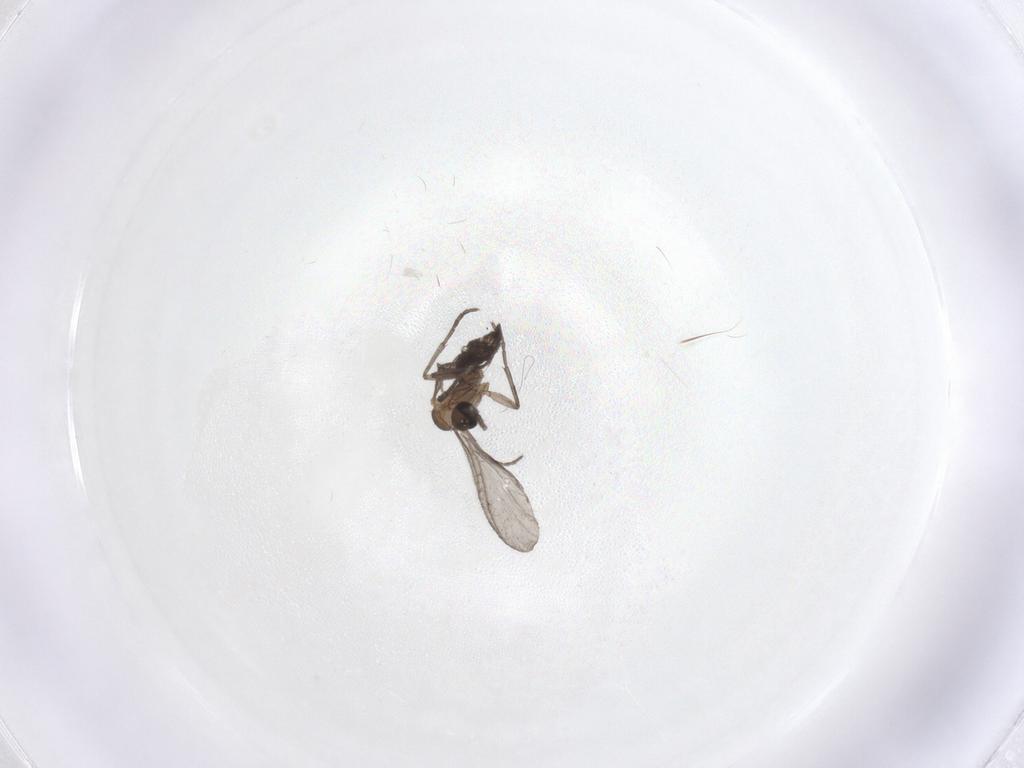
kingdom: Animalia
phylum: Arthropoda
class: Insecta
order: Diptera
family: Sciaridae
